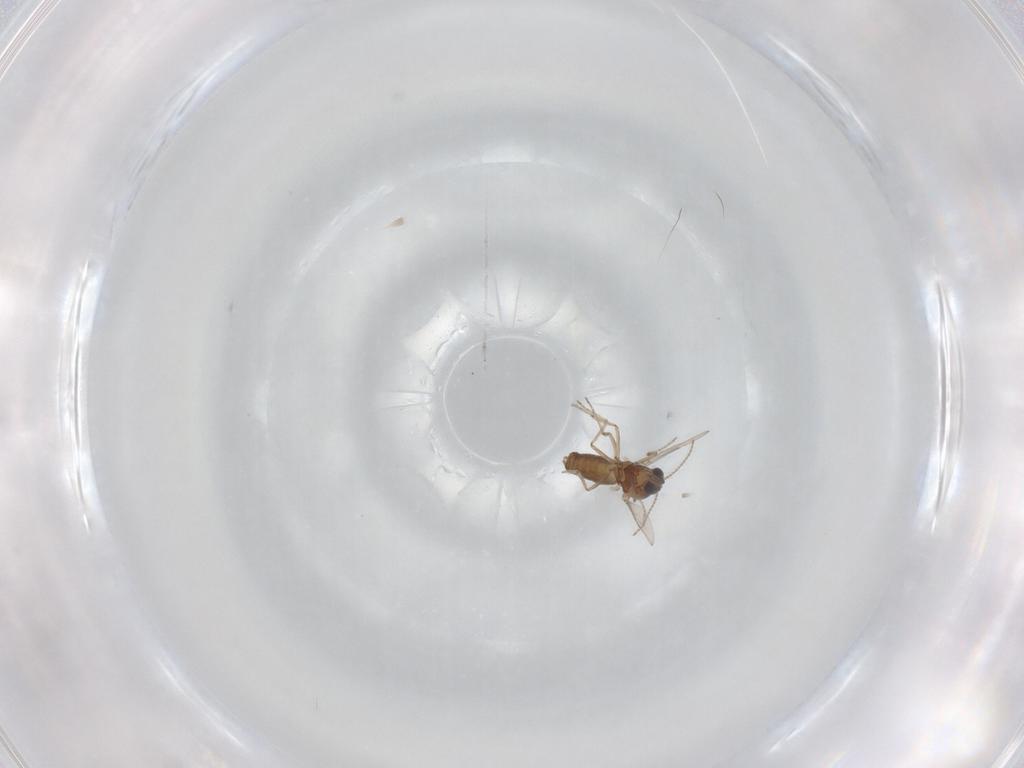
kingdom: Animalia
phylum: Arthropoda
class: Insecta
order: Diptera
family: Ceratopogonidae
